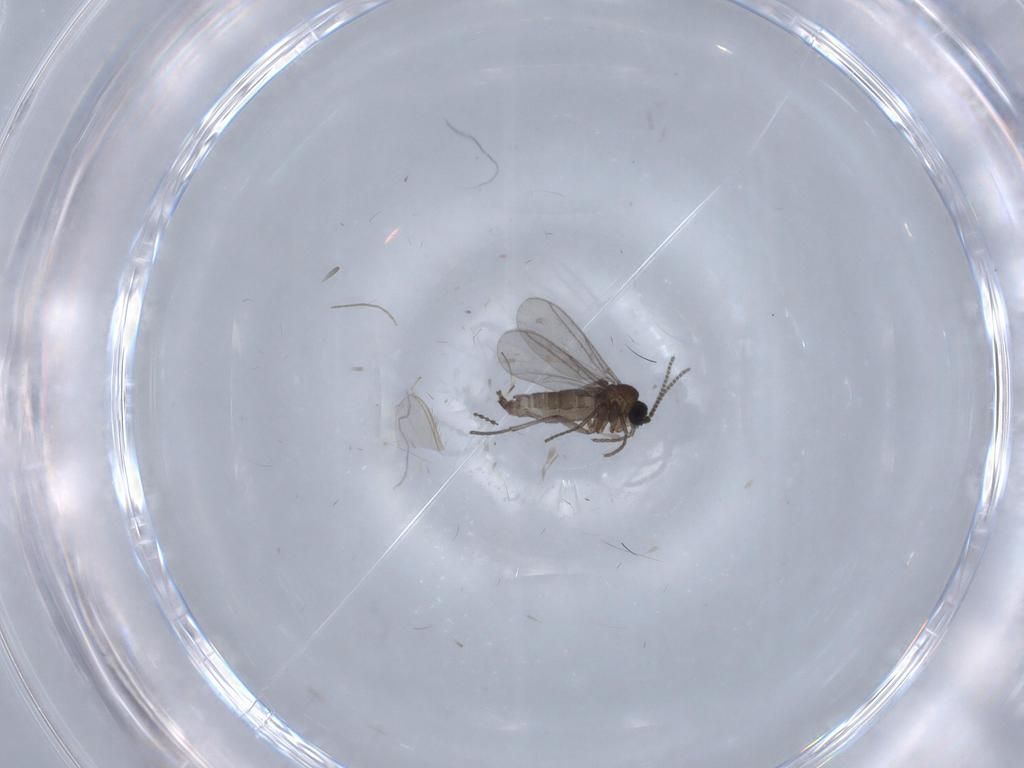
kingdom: Animalia
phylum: Arthropoda
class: Insecta
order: Diptera
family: Sciaridae
